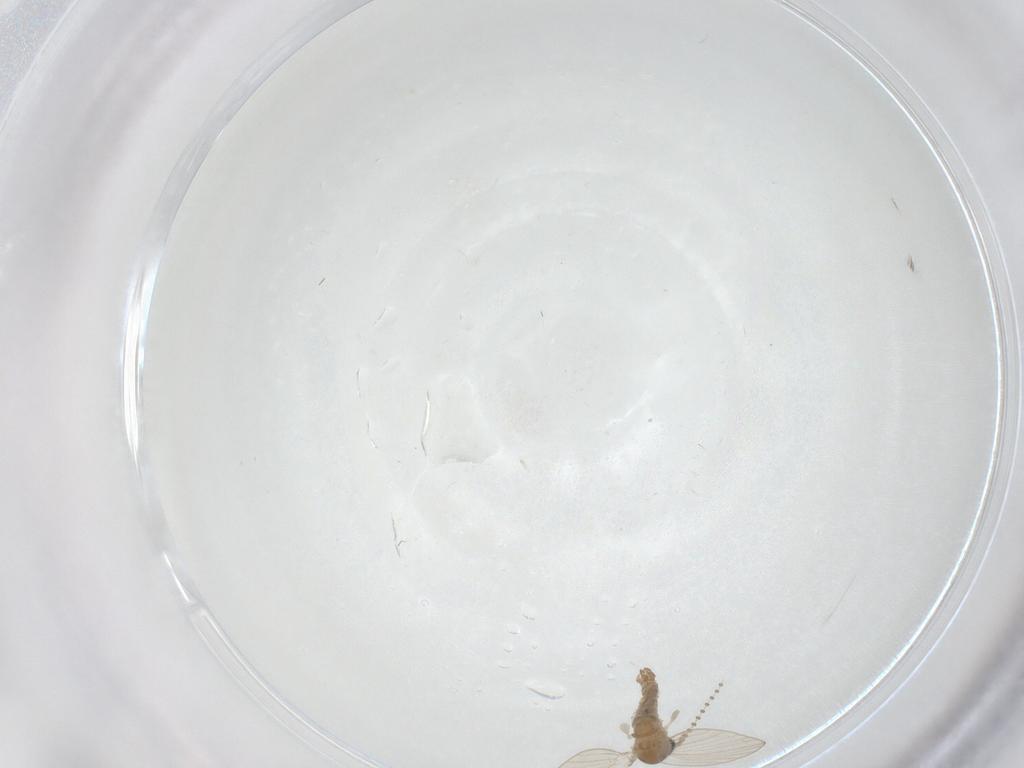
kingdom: Animalia
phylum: Arthropoda
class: Insecta
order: Diptera
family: Psychodidae
